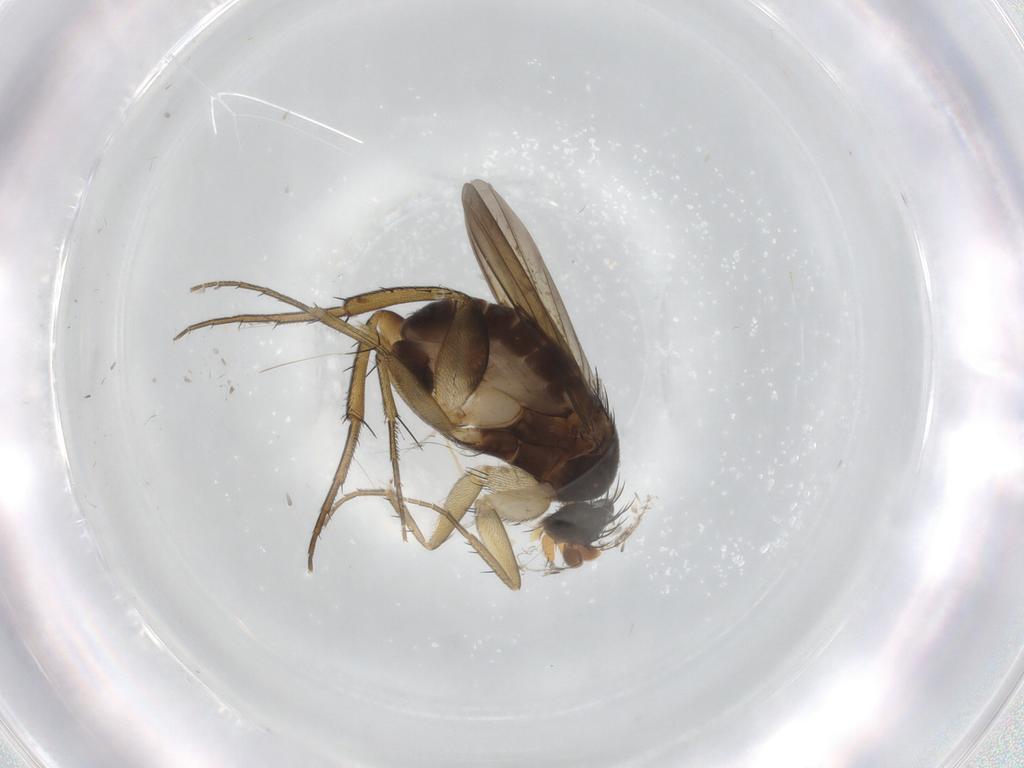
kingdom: Animalia
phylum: Arthropoda
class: Insecta
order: Diptera
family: Phoridae
